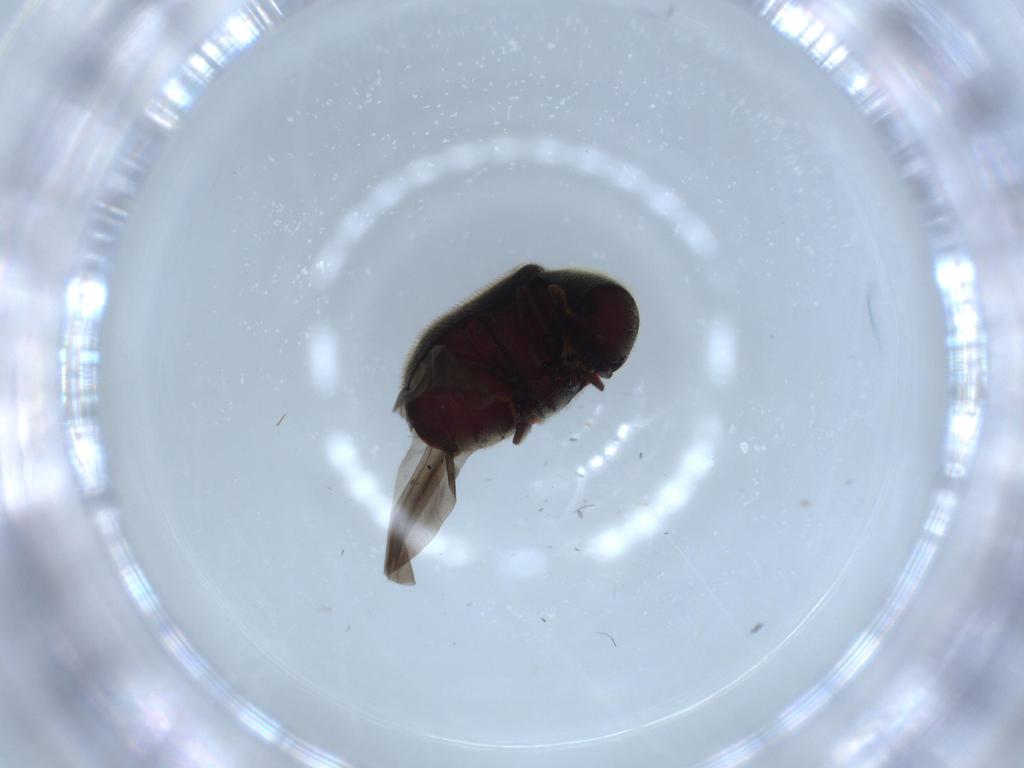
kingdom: Animalia
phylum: Arthropoda
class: Insecta
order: Coleoptera
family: Ptinidae
